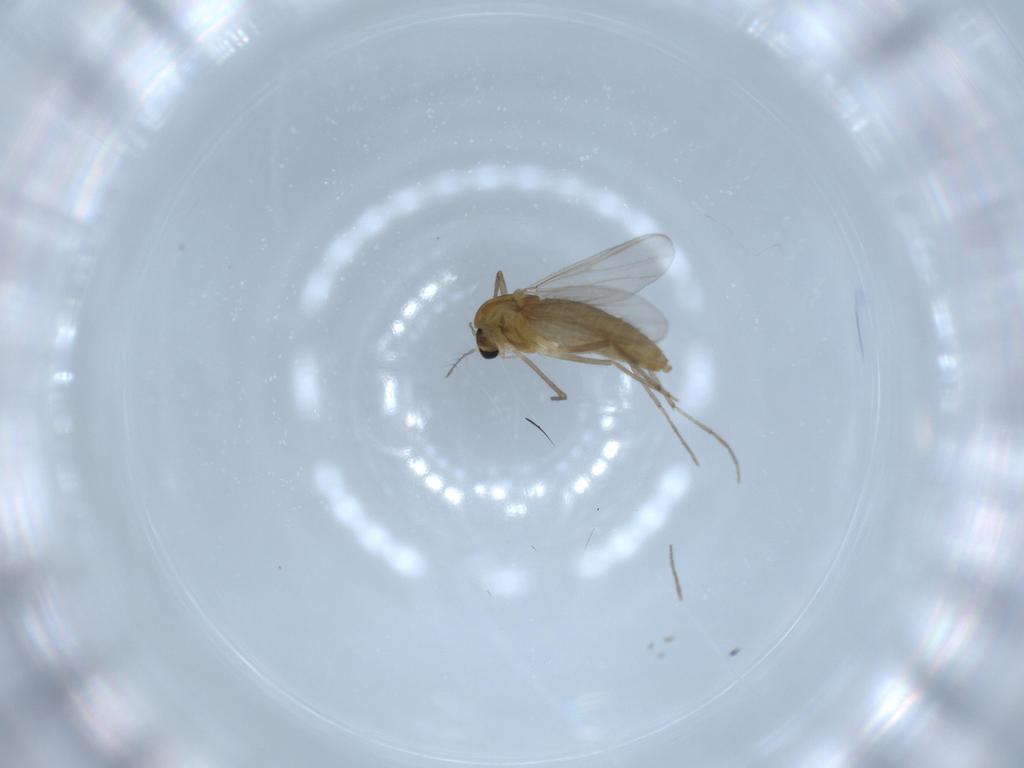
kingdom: Animalia
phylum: Arthropoda
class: Insecta
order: Diptera
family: Chironomidae
